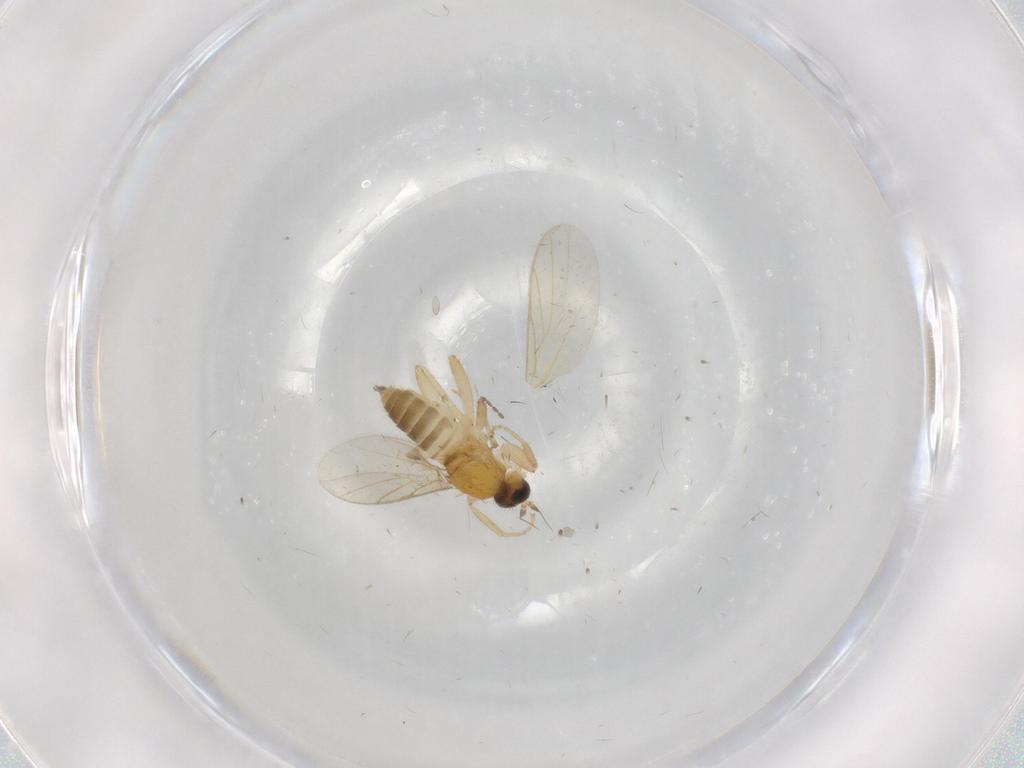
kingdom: Animalia
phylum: Arthropoda
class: Insecta
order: Diptera
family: Hybotidae
